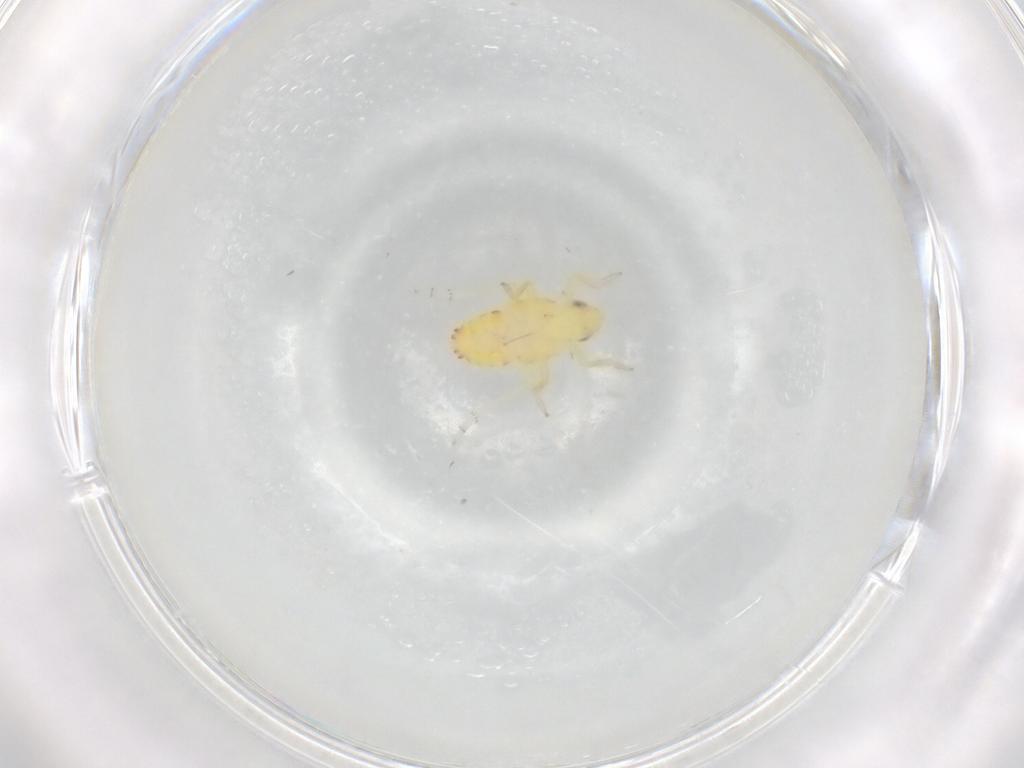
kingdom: Animalia
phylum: Arthropoda
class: Insecta
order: Hemiptera
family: Tropiduchidae
